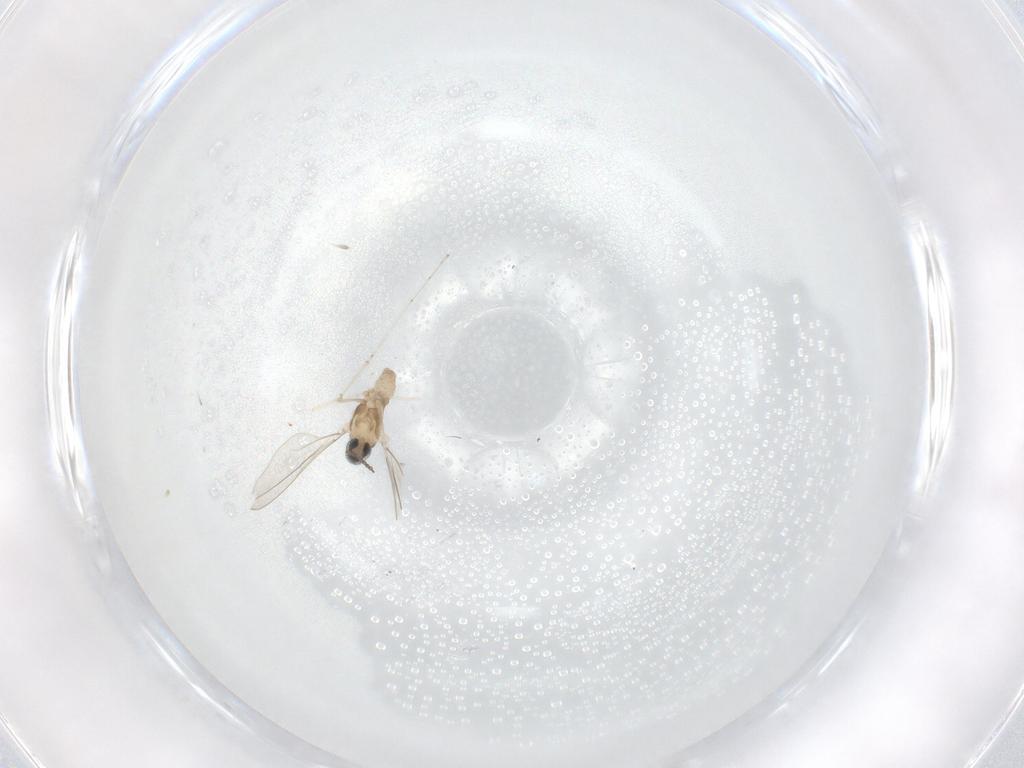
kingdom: Animalia
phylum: Arthropoda
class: Insecta
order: Diptera
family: Cecidomyiidae
